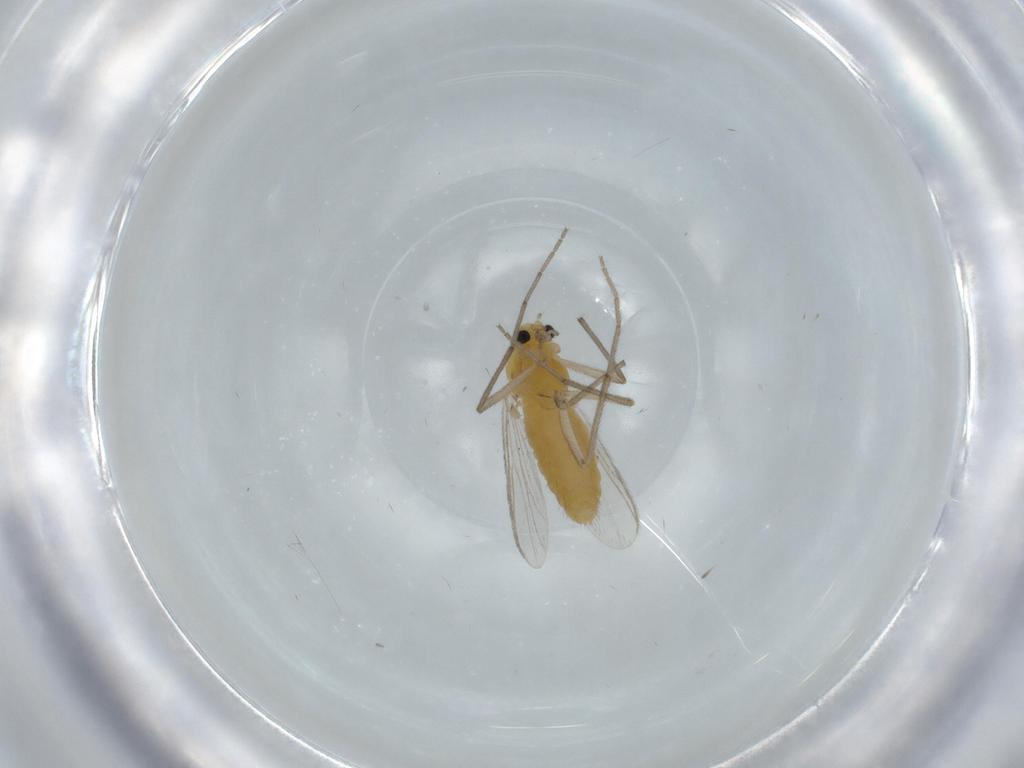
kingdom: Animalia
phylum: Arthropoda
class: Insecta
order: Diptera
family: Chironomidae
